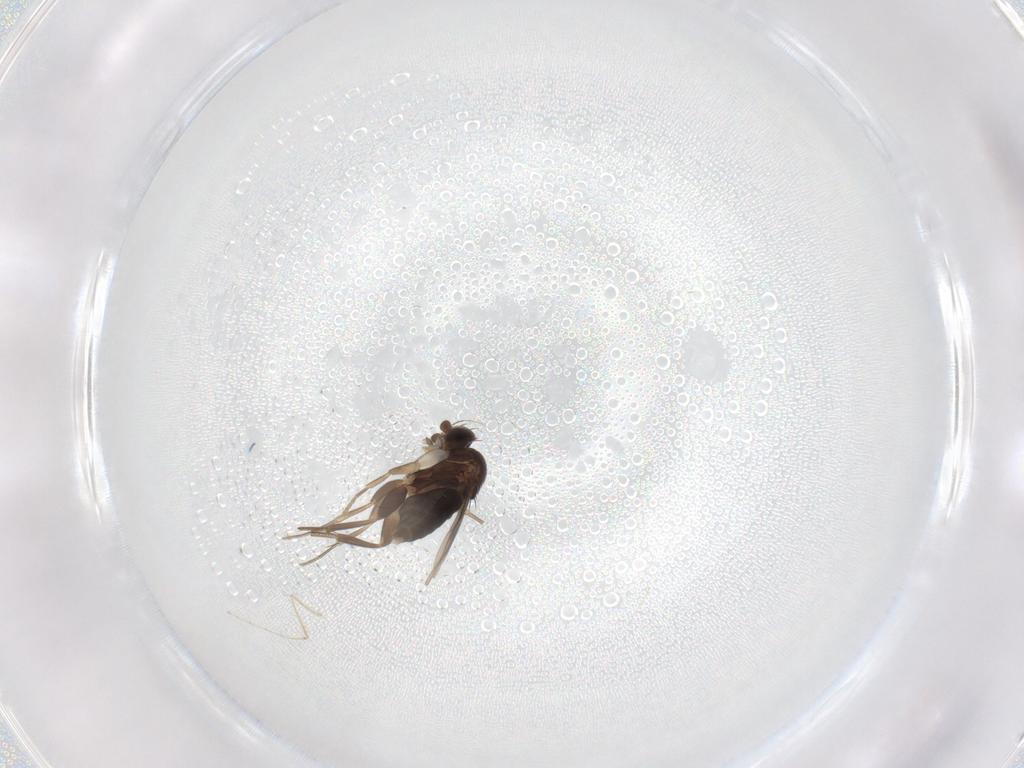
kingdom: Animalia
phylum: Arthropoda
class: Insecta
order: Diptera
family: Phoridae
